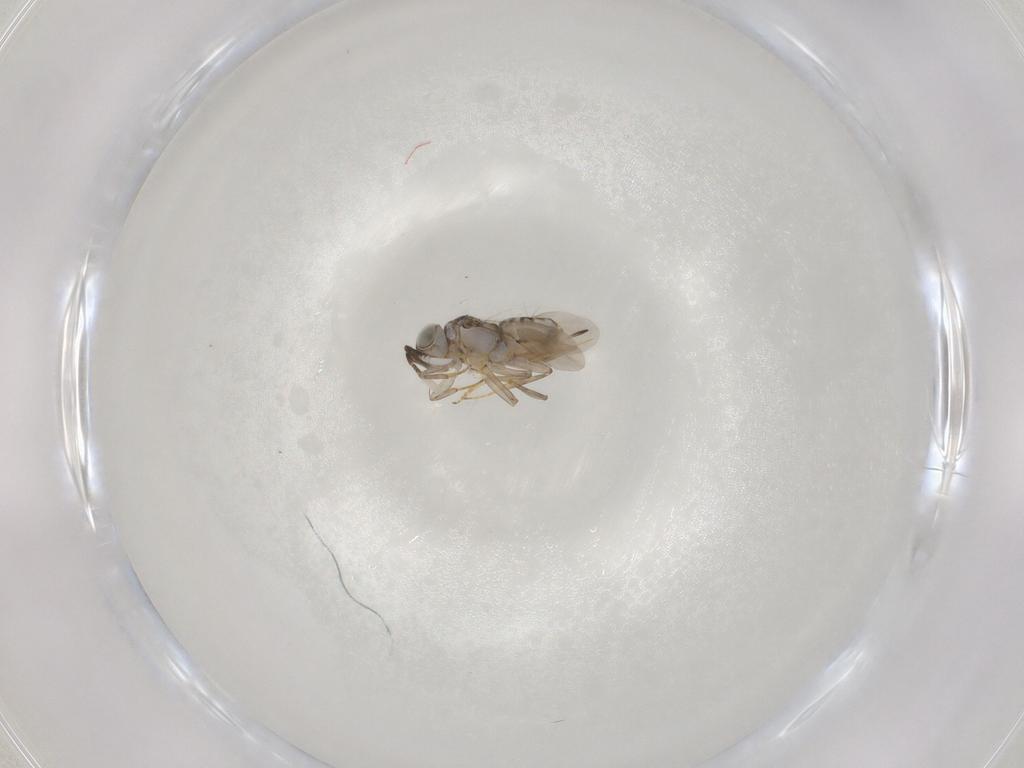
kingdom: Animalia
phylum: Arthropoda
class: Insecta
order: Hymenoptera
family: Encyrtidae
